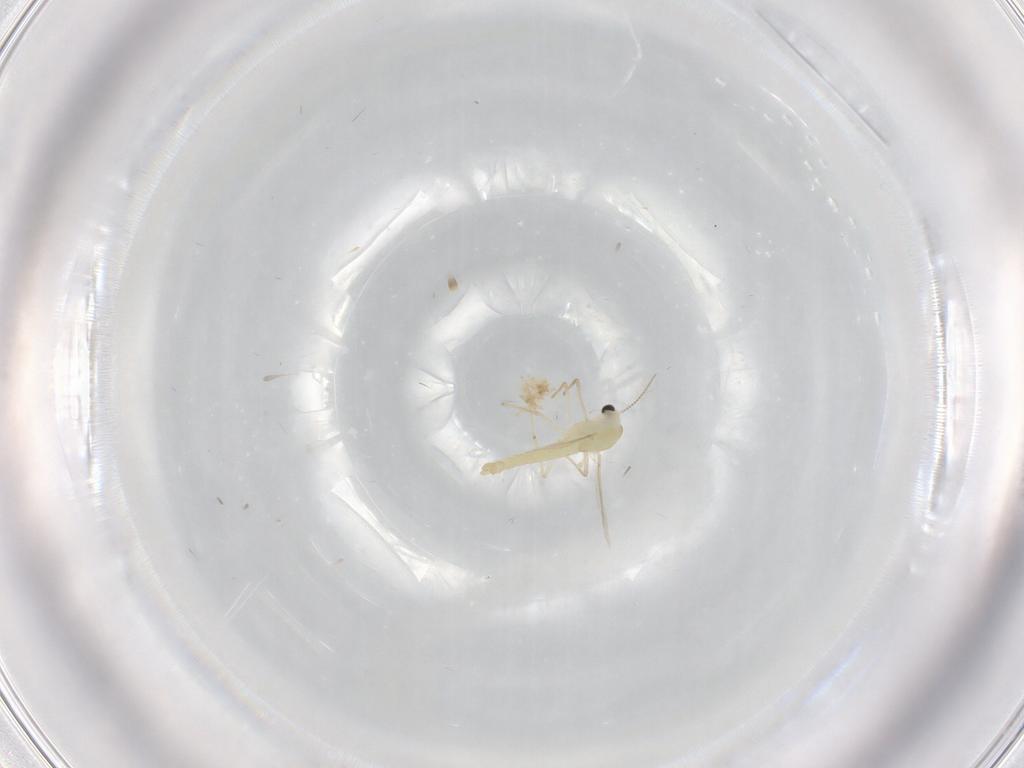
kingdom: Animalia
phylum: Arthropoda
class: Insecta
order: Diptera
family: Chironomidae
